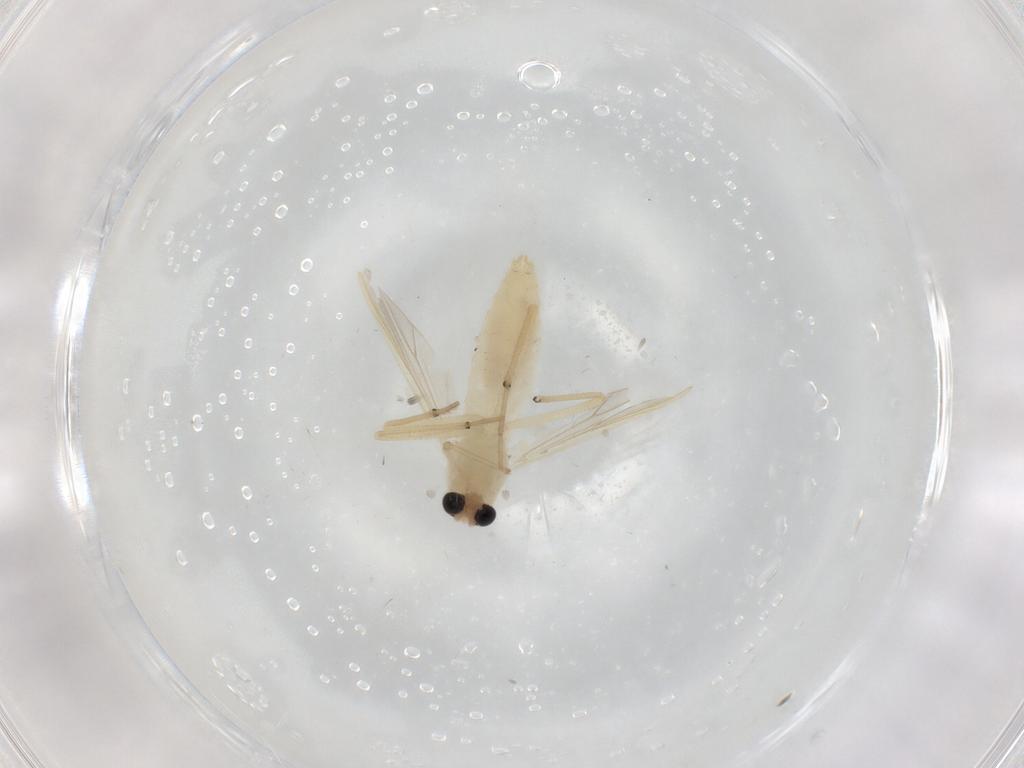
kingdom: Animalia
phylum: Arthropoda
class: Insecta
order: Diptera
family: Chironomidae
